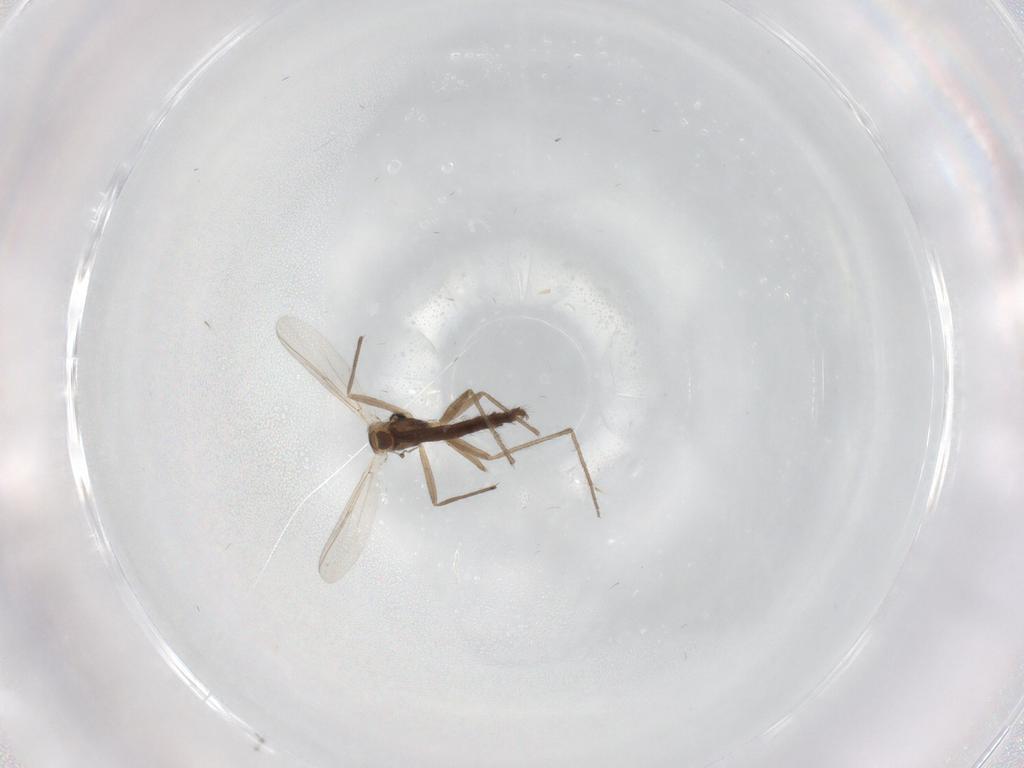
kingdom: Animalia
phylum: Arthropoda
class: Insecta
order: Diptera
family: Chironomidae
